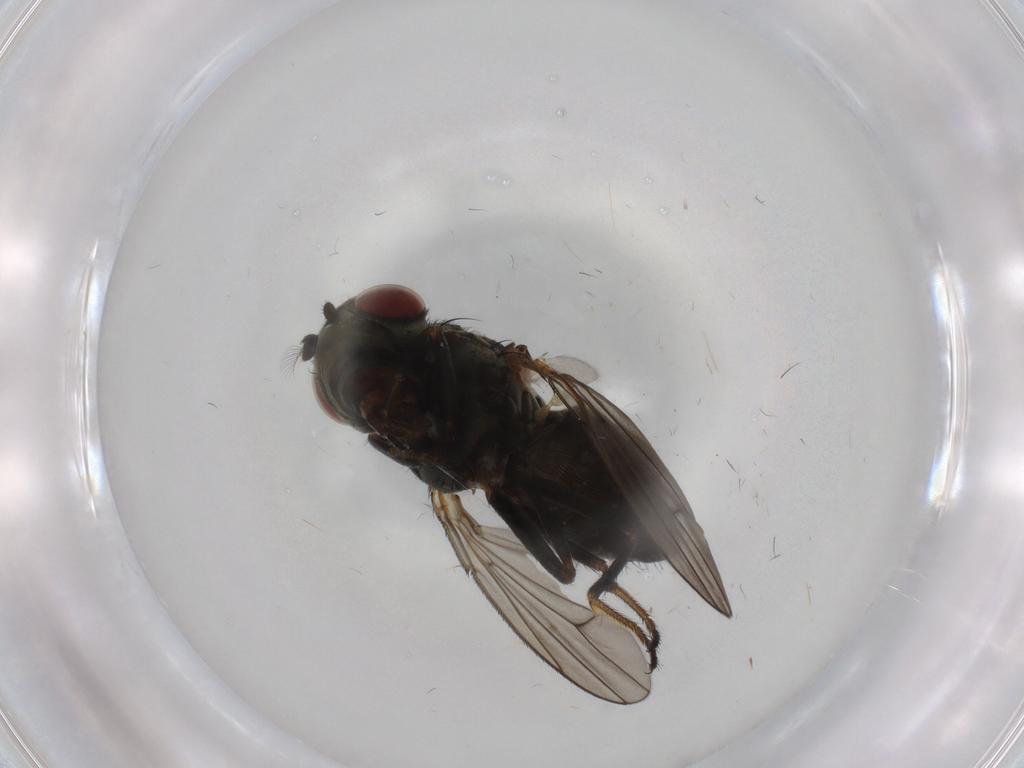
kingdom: Animalia
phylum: Arthropoda
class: Insecta
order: Diptera
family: Ephydridae
